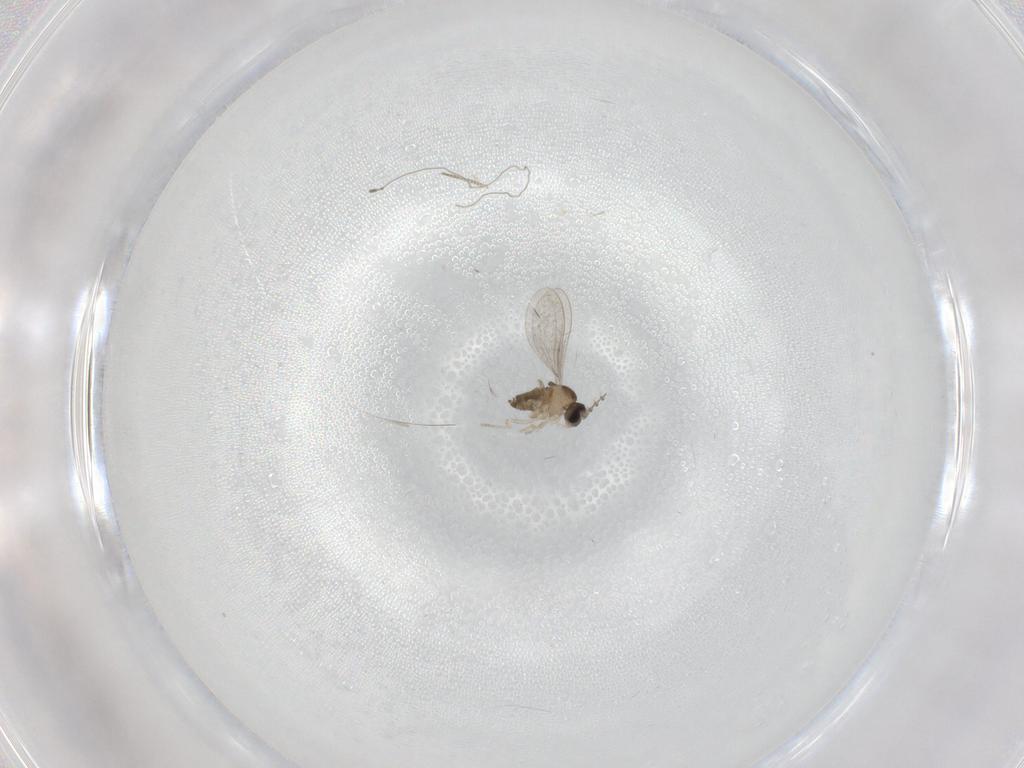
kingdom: Animalia
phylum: Arthropoda
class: Insecta
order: Diptera
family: Cecidomyiidae
